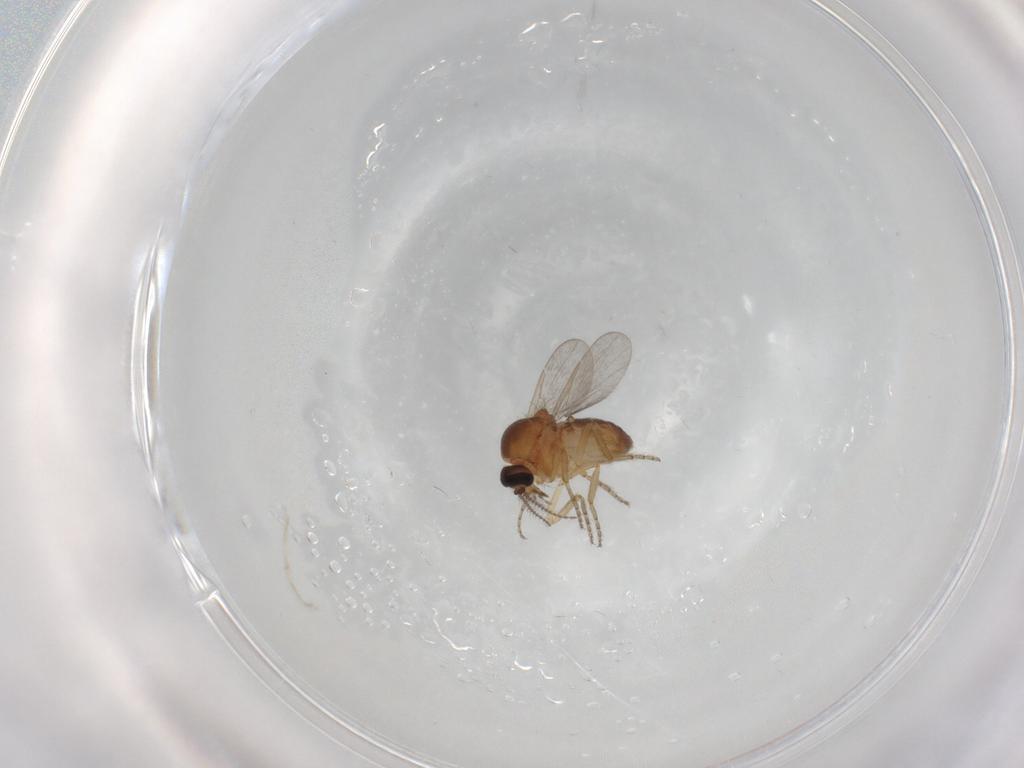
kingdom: Animalia
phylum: Arthropoda
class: Insecta
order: Diptera
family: Ceratopogonidae
